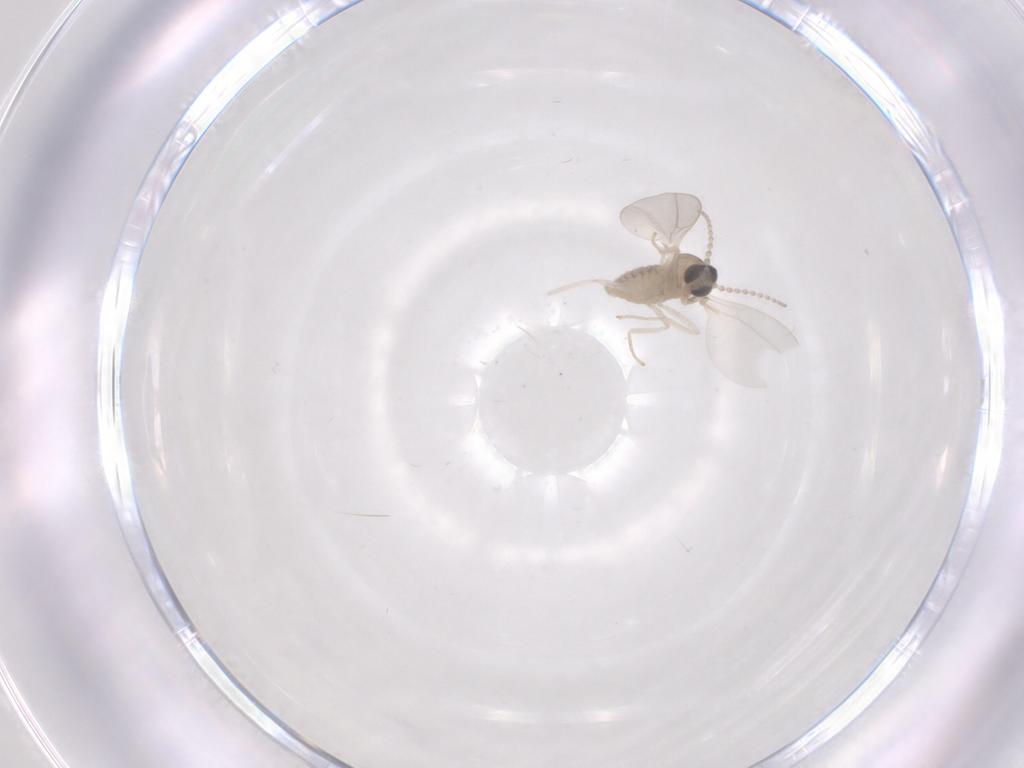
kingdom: Animalia
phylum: Arthropoda
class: Insecta
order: Diptera
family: Cecidomyiidae
